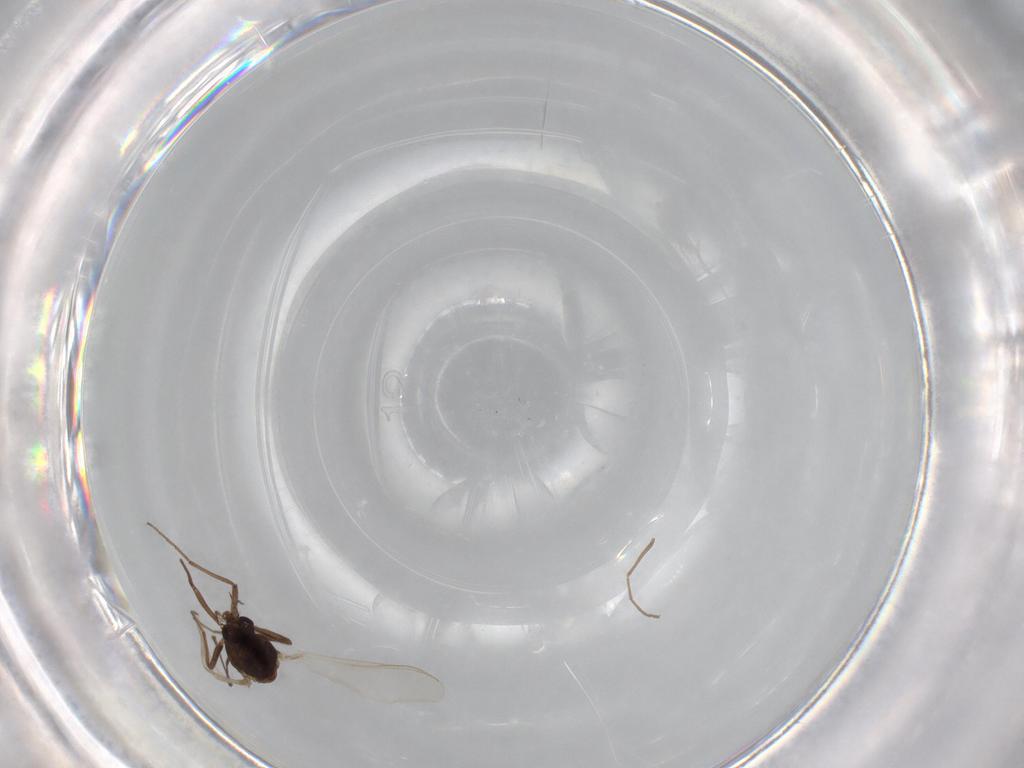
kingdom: Animalia
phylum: Arthropoda
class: Insecta
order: Diptera
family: Chironomidae
